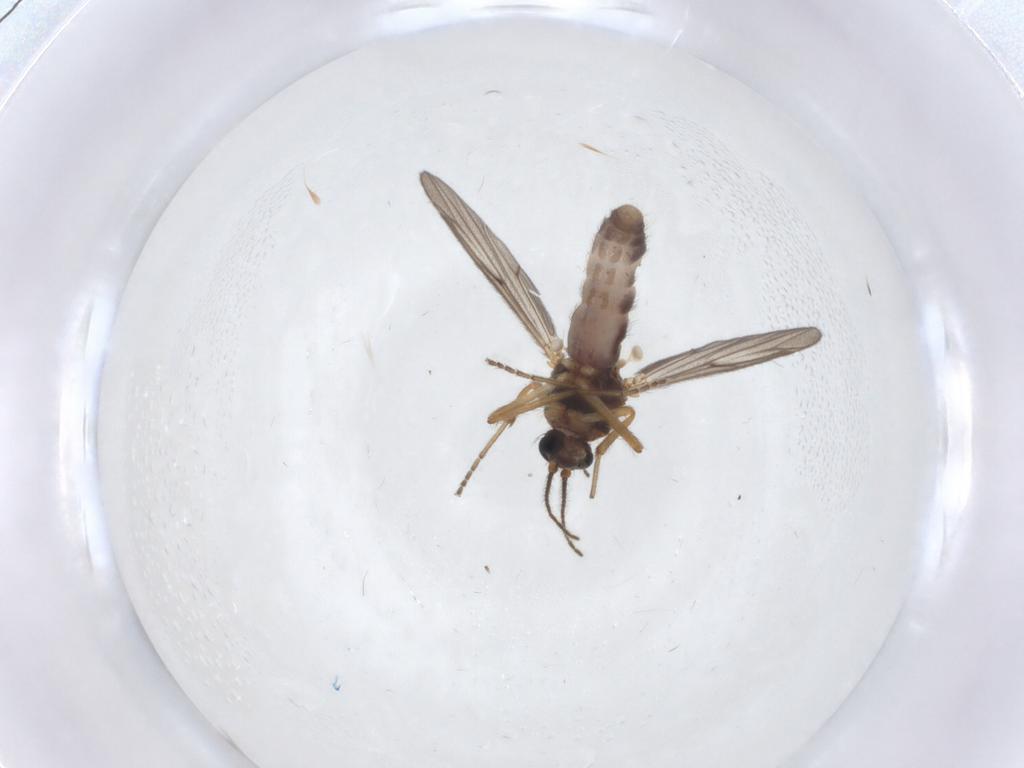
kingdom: Animalia
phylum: Arthropoda
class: Insecta
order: Diptera
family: Ceratopogonidae
